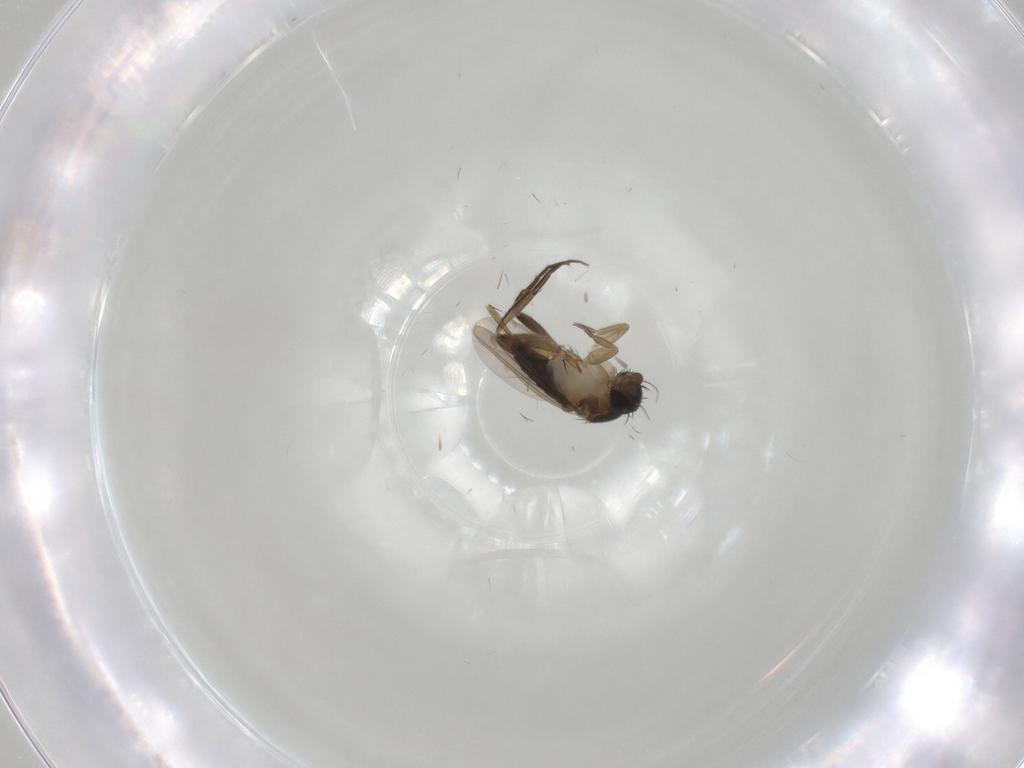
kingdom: Animalia
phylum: Arthropoda
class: Insecta
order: Diptera
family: Phoridae
